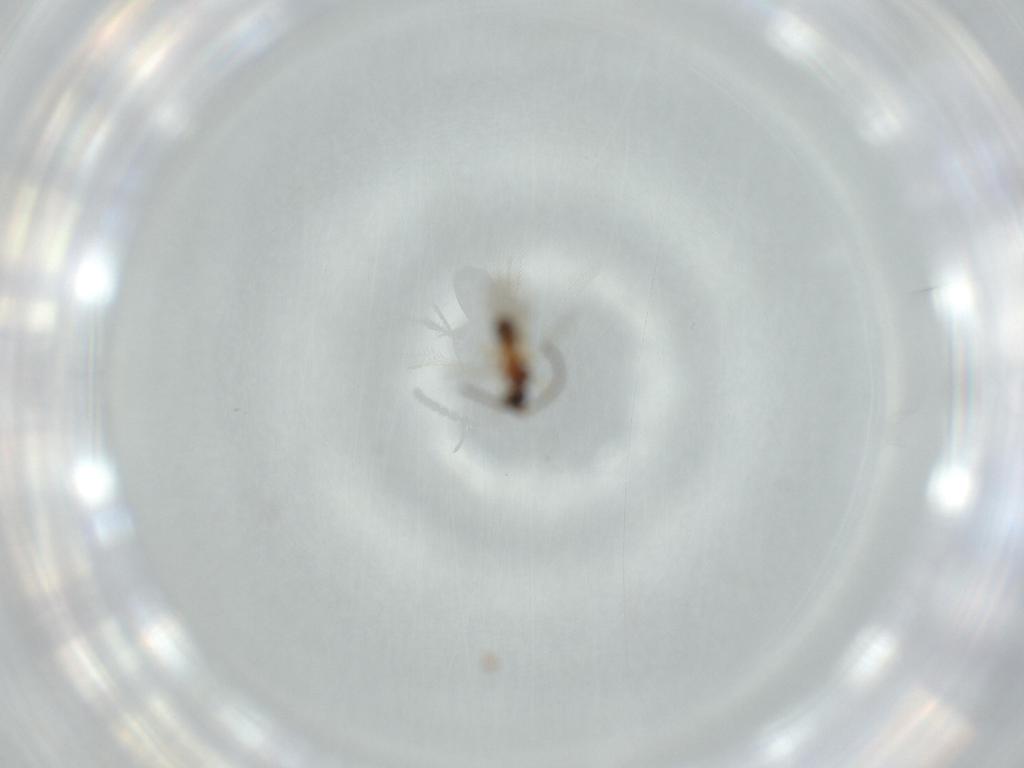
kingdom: Animalia
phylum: Arthropoda
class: Insecta
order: Hymenoptera
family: Diapriidae
